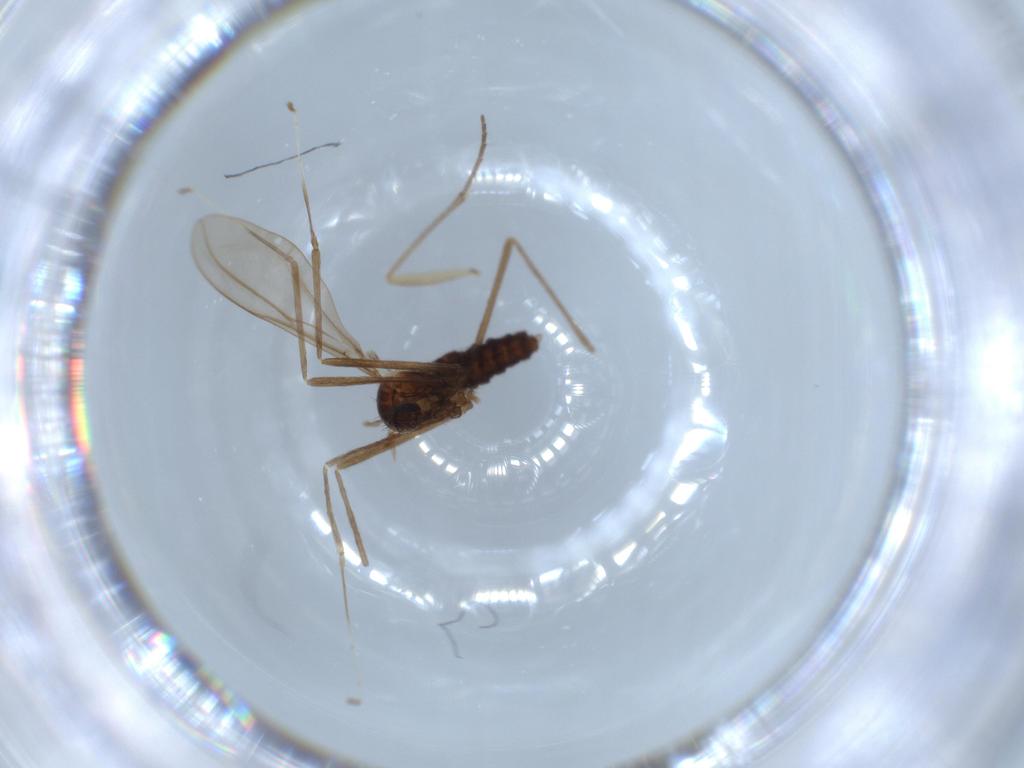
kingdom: Animalia
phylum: Arthropoda
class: Insecta
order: Diptera
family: Cecidomyiidae
